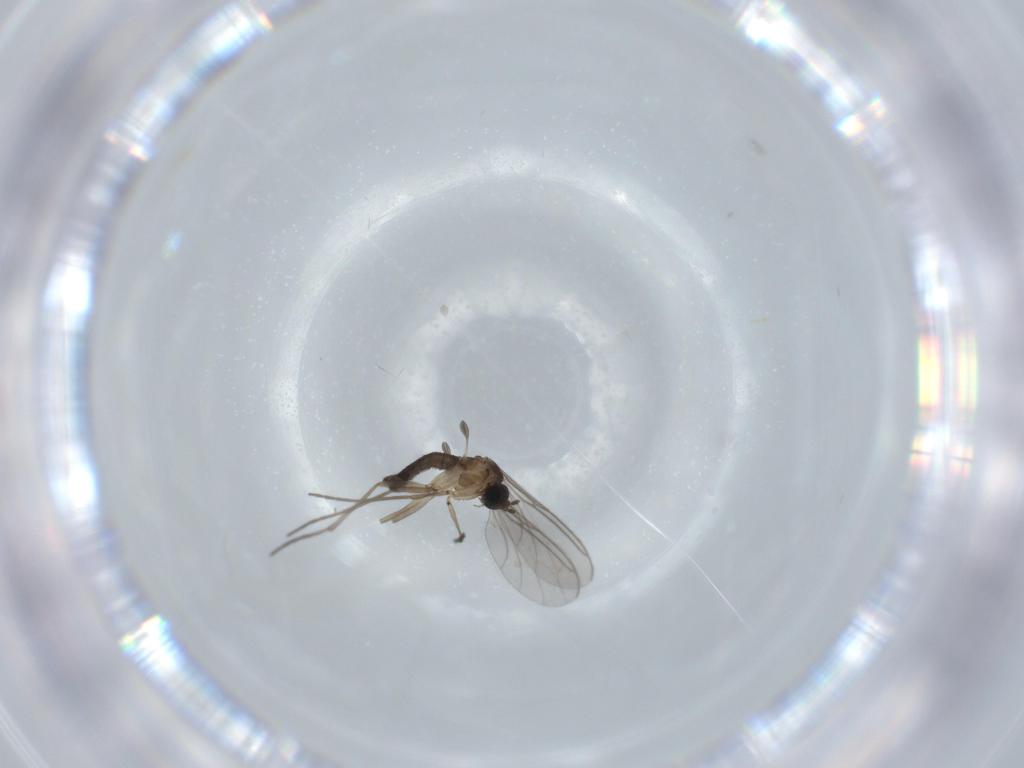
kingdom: Animalia
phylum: Arthropoda
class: Insecta
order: Diptera
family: Sciaridae
